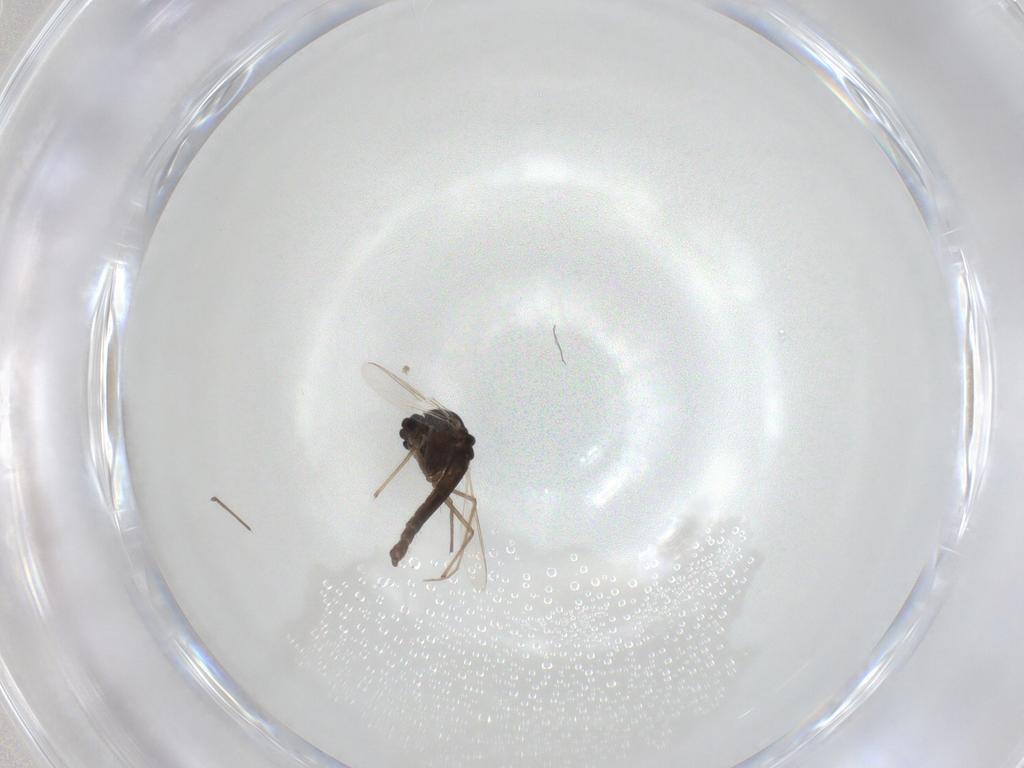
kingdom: Animalia
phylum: Arthropoda
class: Insecta
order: Diptera
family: Chironomidae
